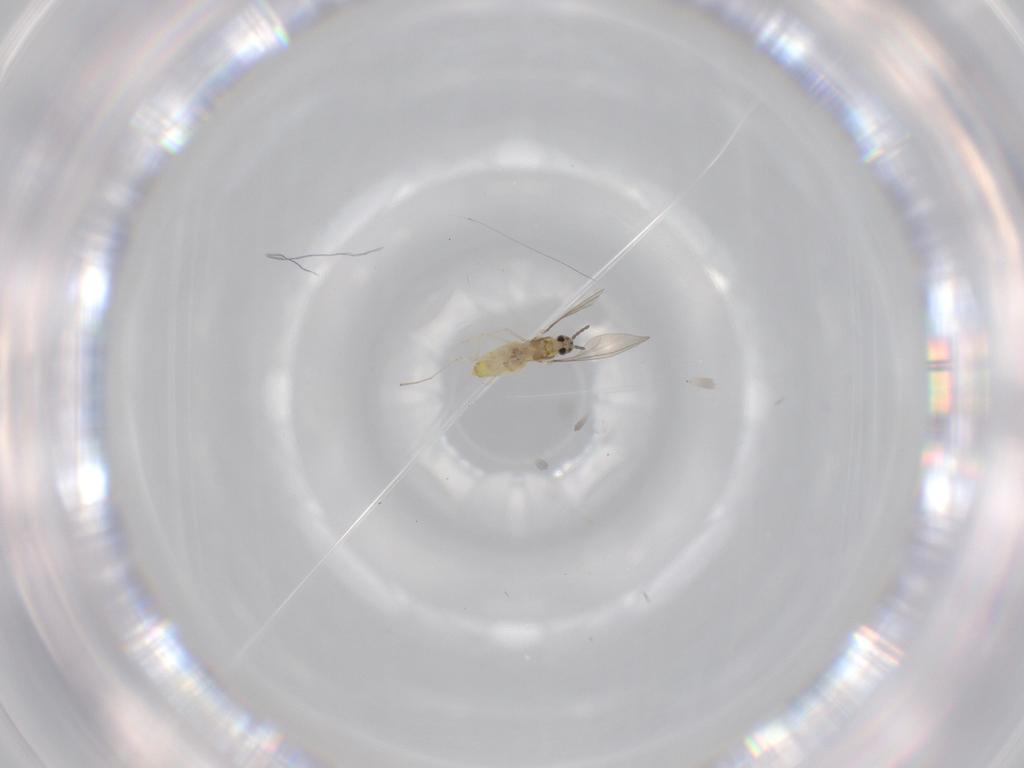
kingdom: Animalia
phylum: Arthropoda
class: Insecta
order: Diptera
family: Cecidomyiidae
